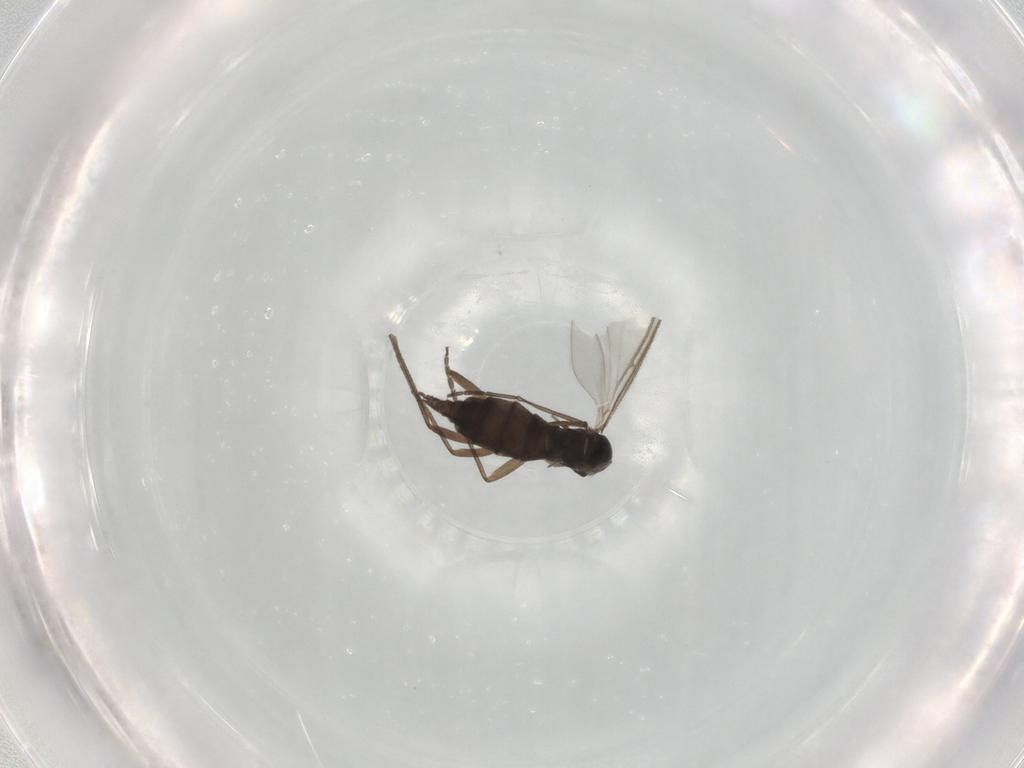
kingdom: Animalia
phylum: Arthropoda
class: Insecta
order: Diptera
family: Sciaridae
